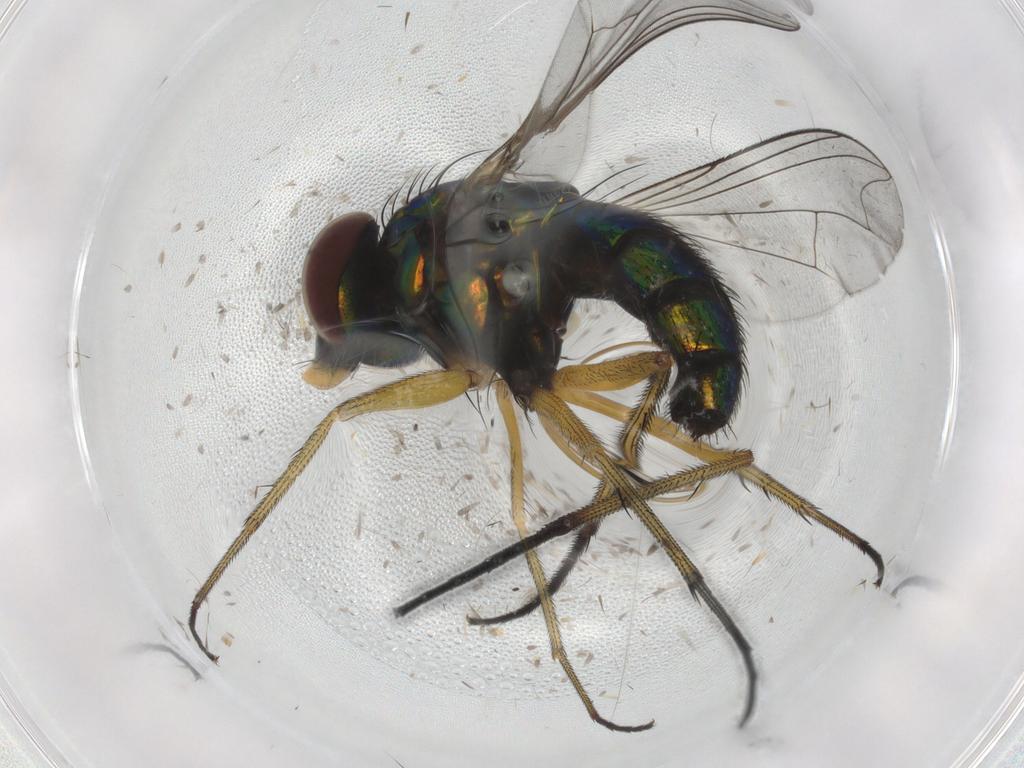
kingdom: Animalia
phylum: Arthropoda
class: Insecta
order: Diptera
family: Dolichopodidae
